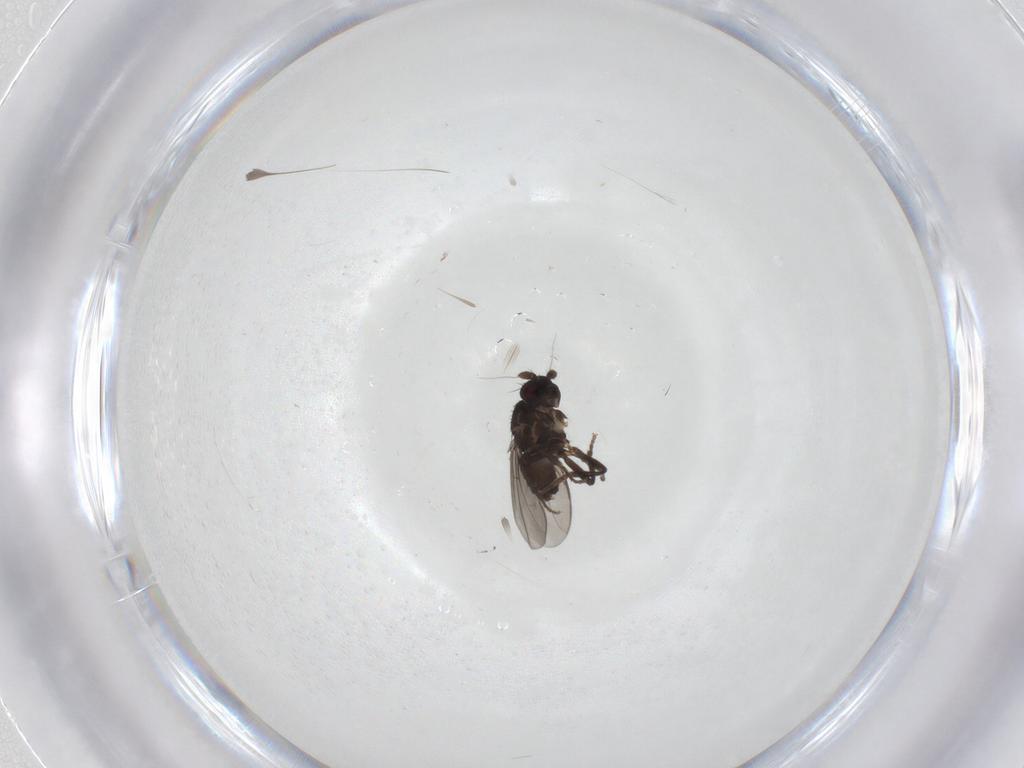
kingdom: Animalia
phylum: Arthropoda
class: Insecta
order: Diptera
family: Sphaeroceridae
